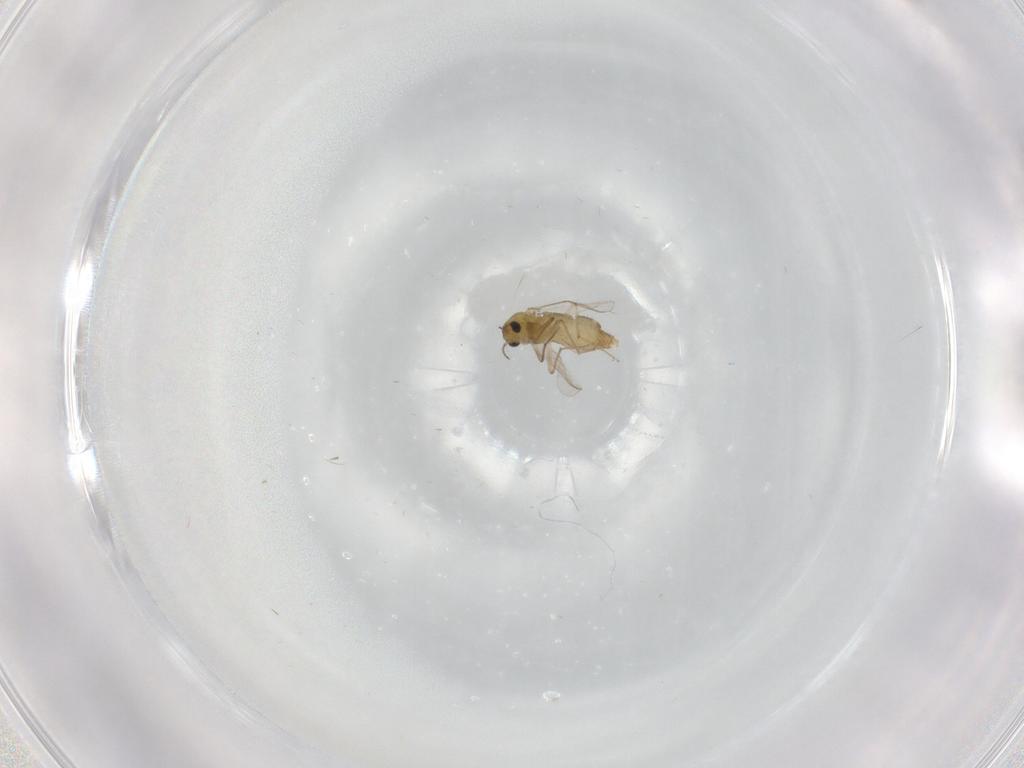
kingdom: Animalia
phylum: Arthropoda
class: Insecta
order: Diptera
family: Chironomidae
